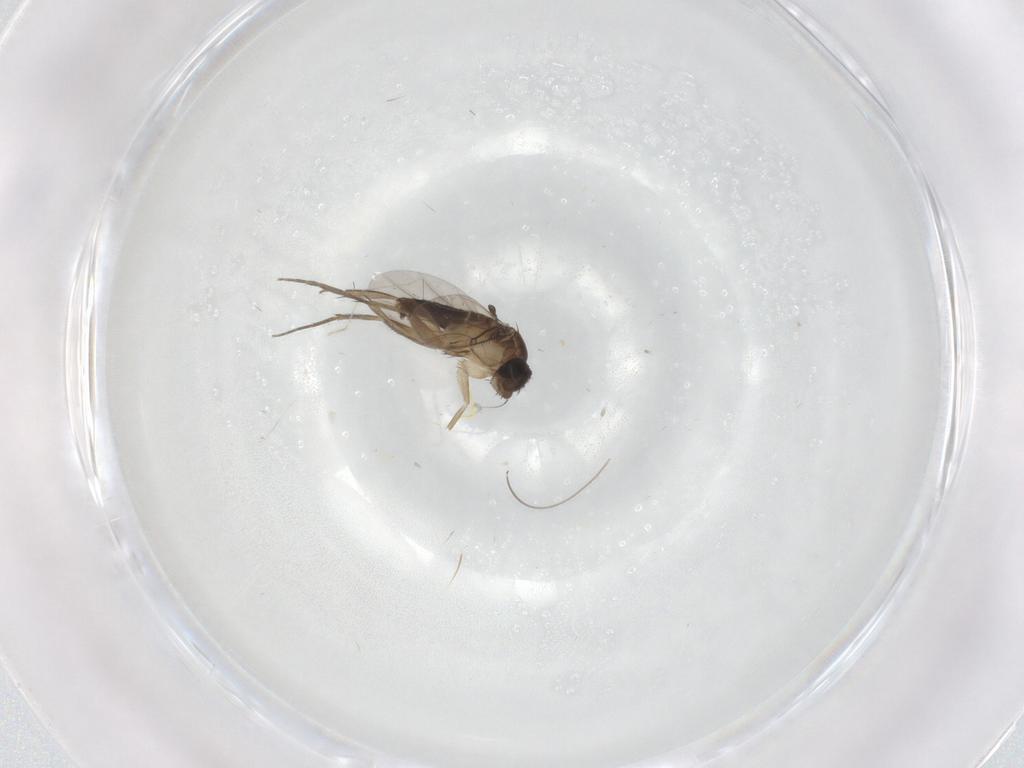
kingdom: Animalia
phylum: Arthropoda
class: Insecta
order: Diptera
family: Phoridae
